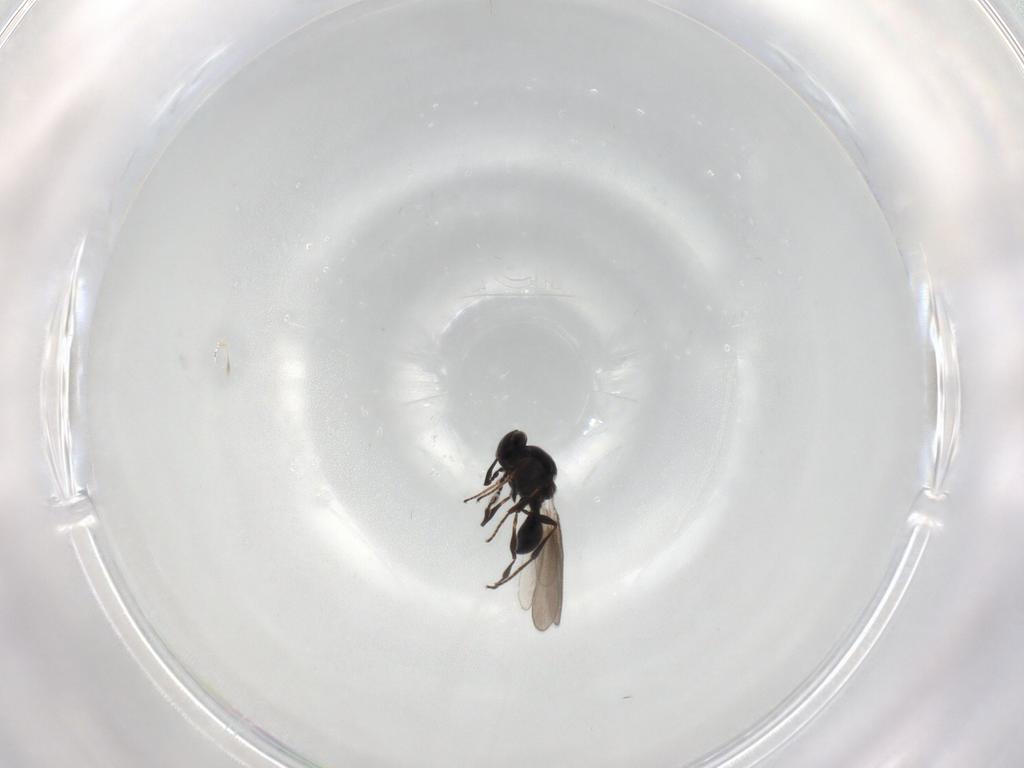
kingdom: Animalia
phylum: Arthropoda
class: Insecta
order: Hymenoptera
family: Platygastridae
